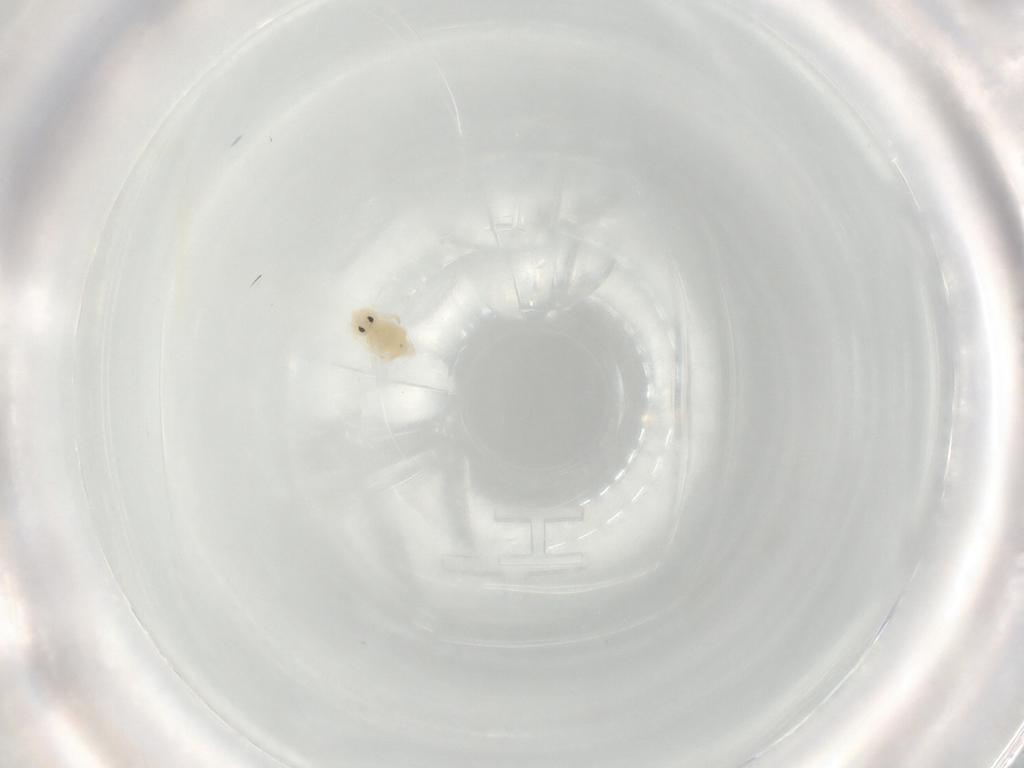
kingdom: Animalia
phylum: Arthropoda
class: Collembola
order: Symphypleona
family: Bourletiellidae
